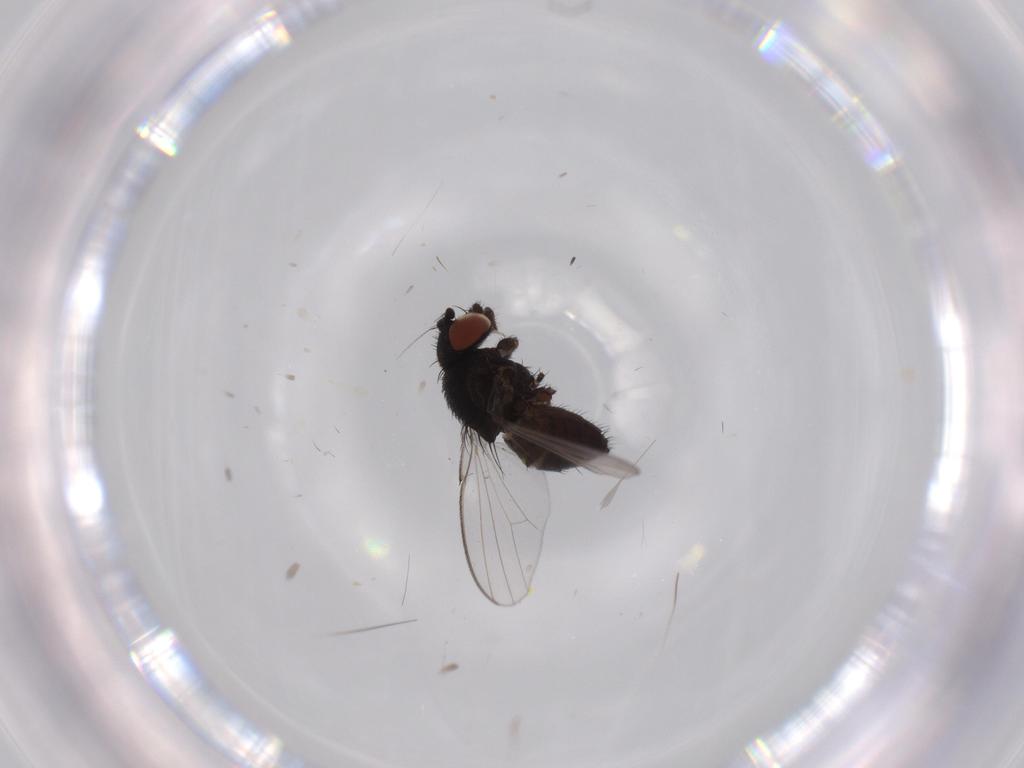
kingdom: Animalia
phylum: Arthropoda
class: Insecta
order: Diptera
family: Milichiidae
